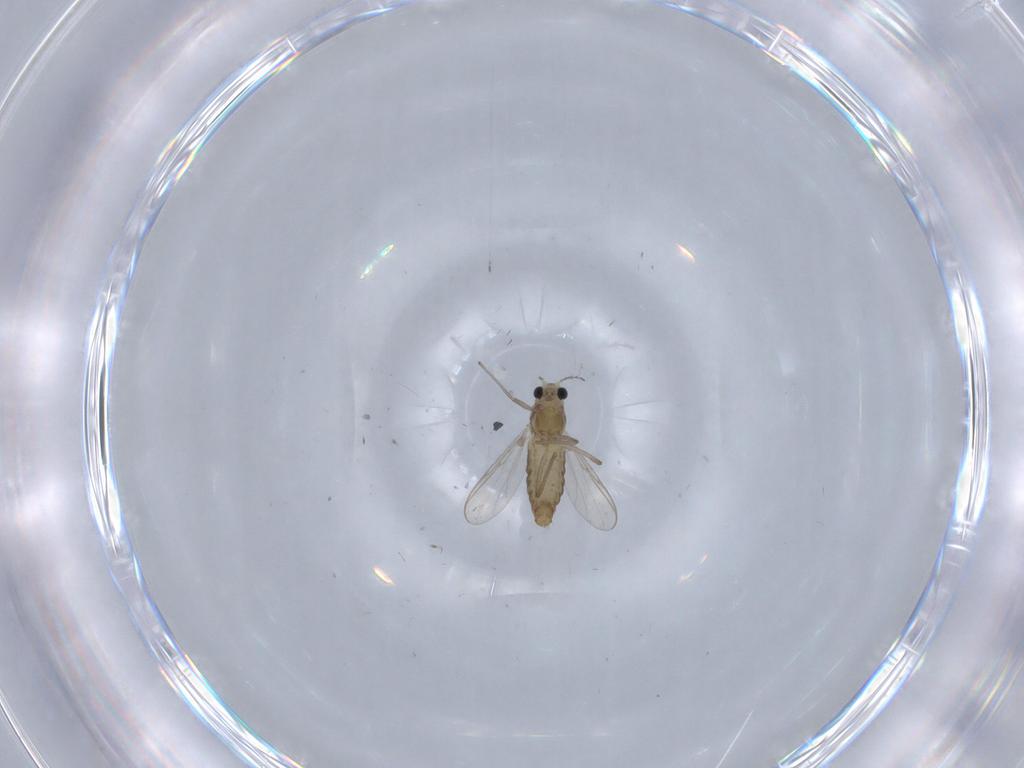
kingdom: Animalia
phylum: Arthropoda
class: Insecta
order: Diptera
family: Chironomidae
